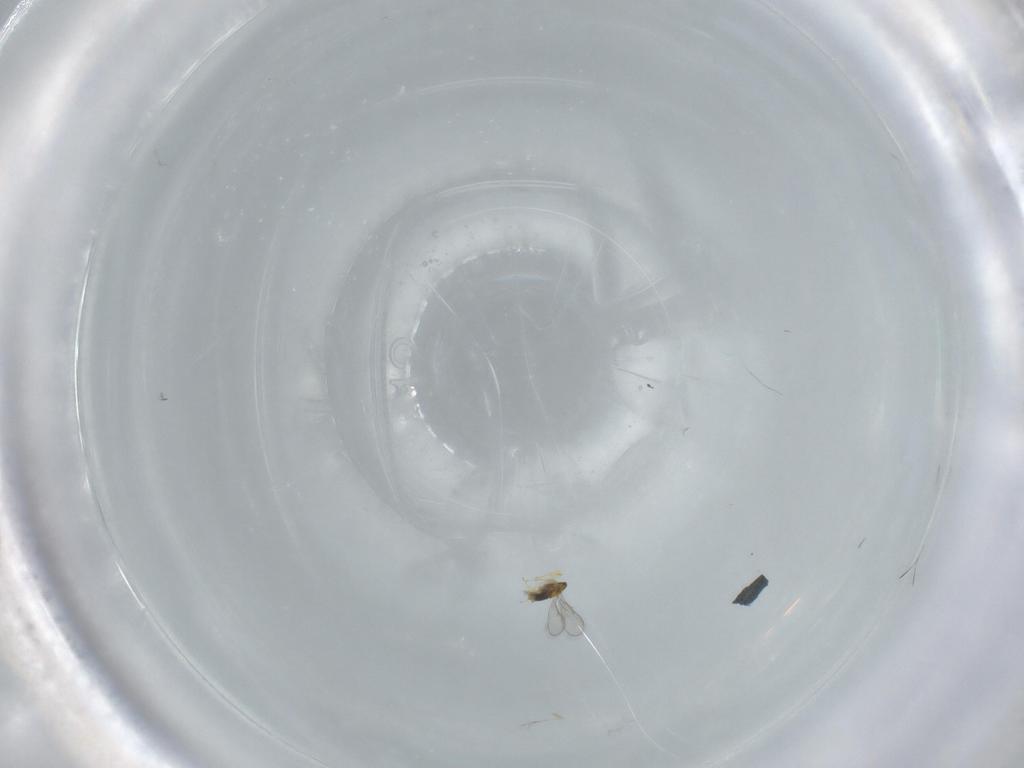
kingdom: Animalia
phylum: Arthropoda
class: Insecta
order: Hymenoptera
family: Aphelinidae
